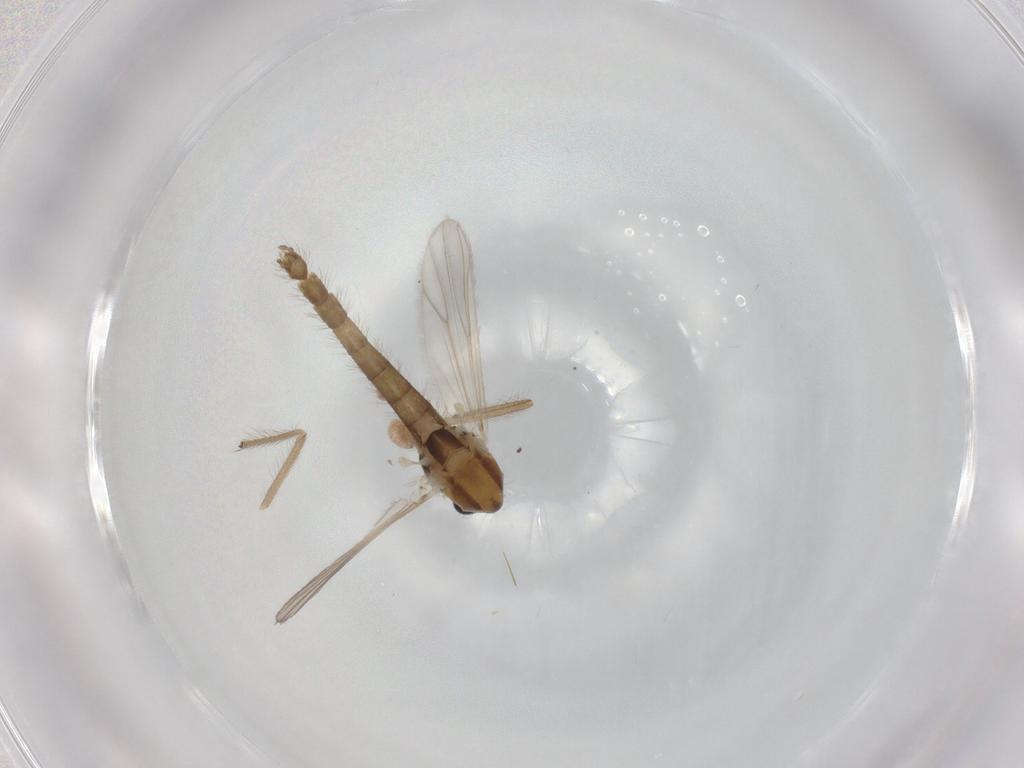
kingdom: Animalia
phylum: Arthropoda
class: Insecta
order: Diptera
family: Chironomidae
